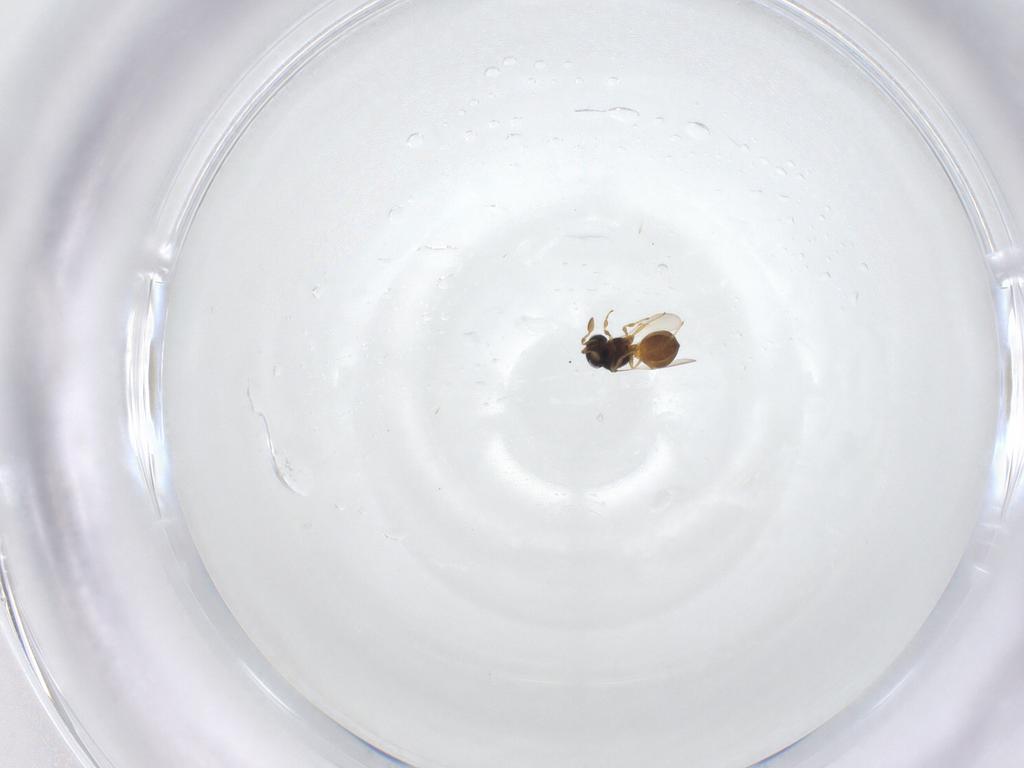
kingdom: Animalia
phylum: Arthropoda
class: Insecta
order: Hymenoptera
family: Scelionidae
